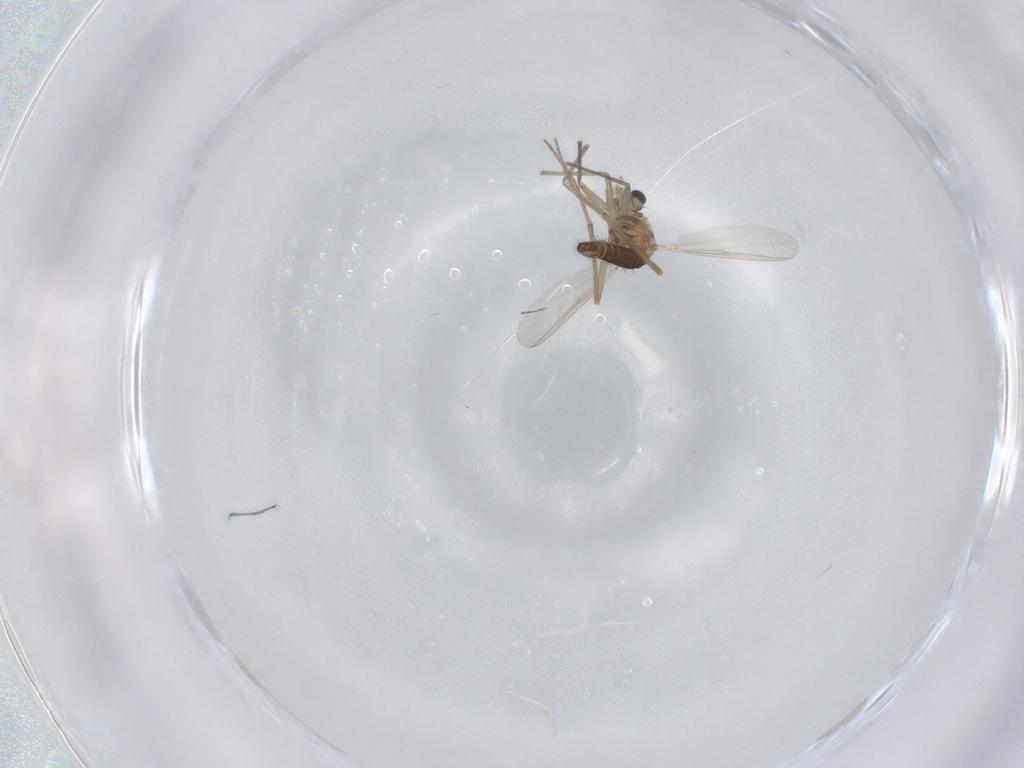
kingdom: Animalia
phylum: Arthropoda
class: Insecta
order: Diptera
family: Chironomidae
